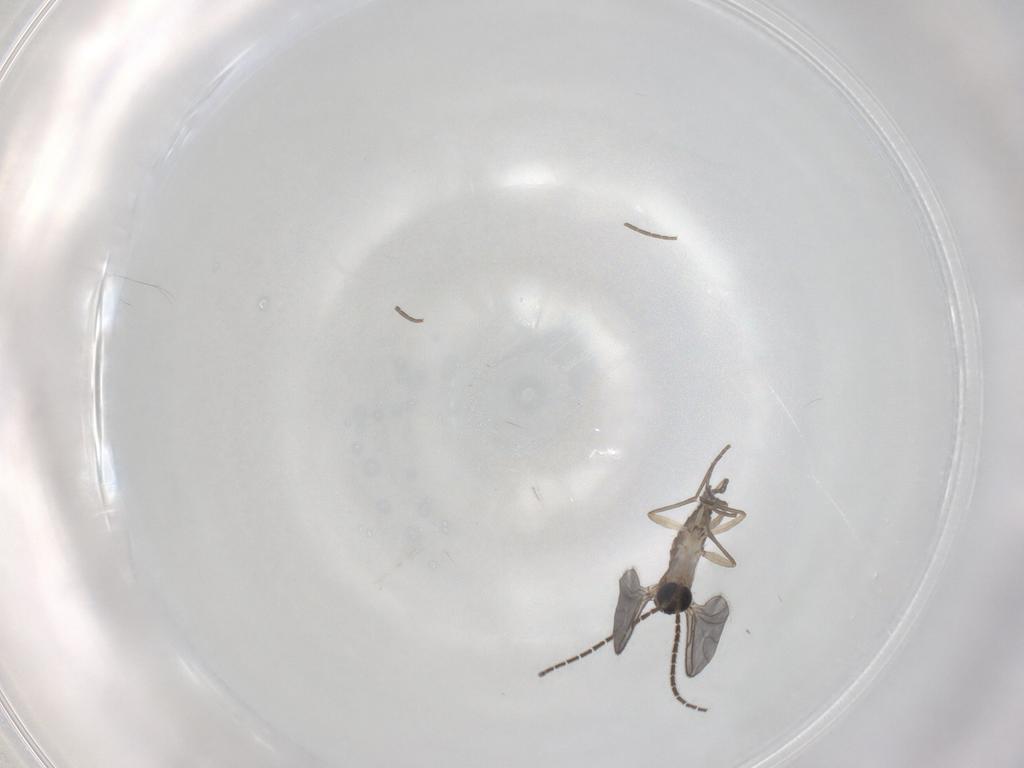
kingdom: Animalia
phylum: Arthropoda
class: Insecta
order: Diptera
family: Sciaridae
